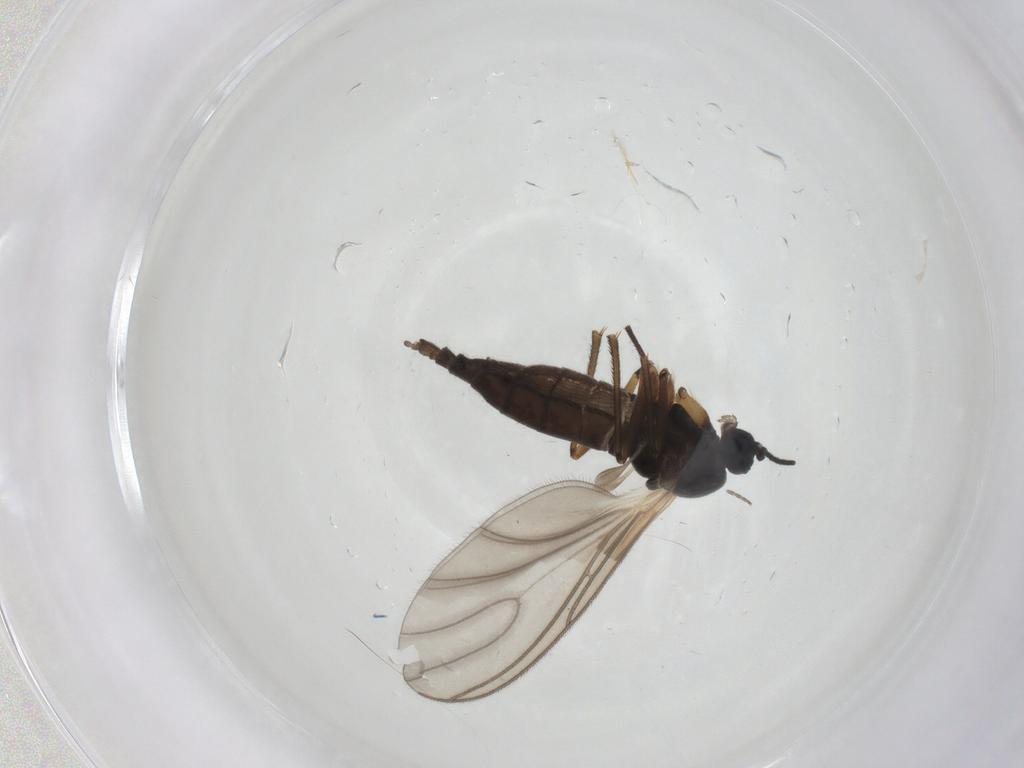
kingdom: Animalia
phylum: Arthropoda
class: Insecta
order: Diptera
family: Sciaridae
